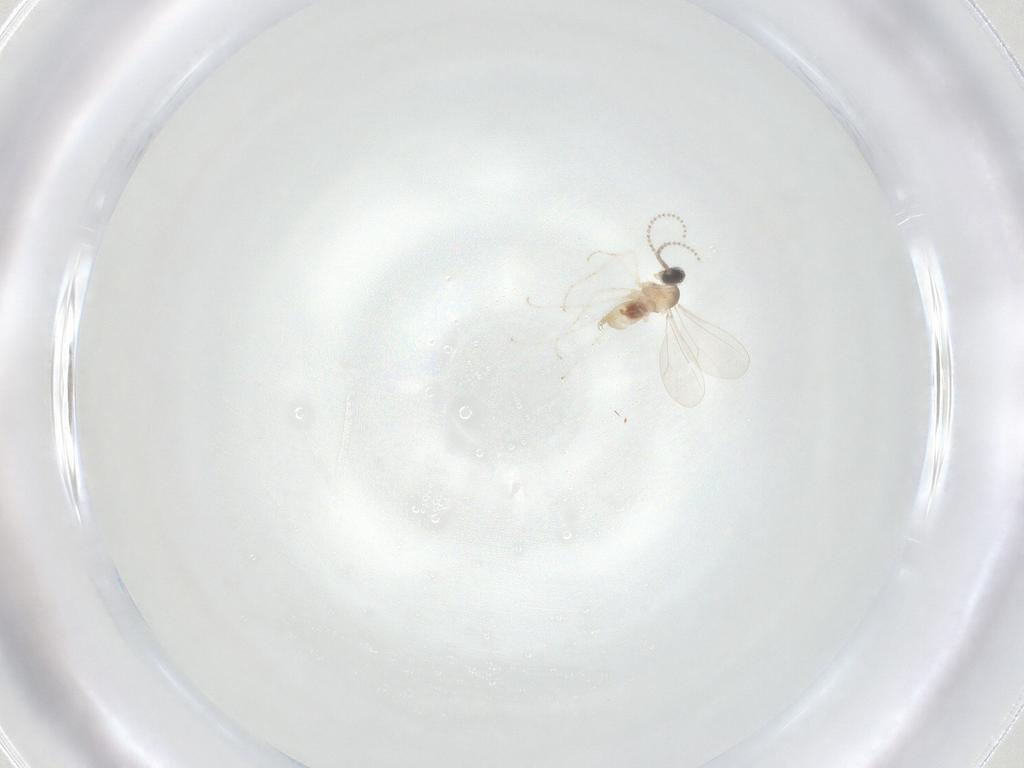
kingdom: Animalia
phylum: Arthropoda
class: Insecta
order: Diptera
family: Cecidomyiidae
